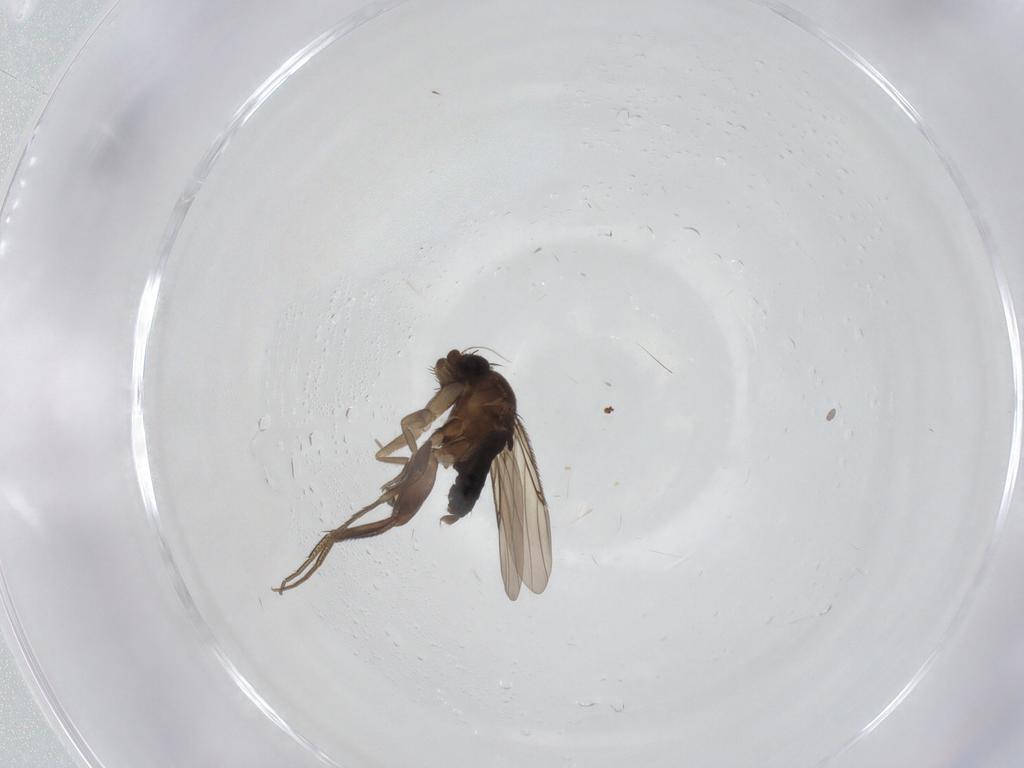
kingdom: Animalia
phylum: Arthropoda
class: Insecta
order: Diptera
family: Phoridae
